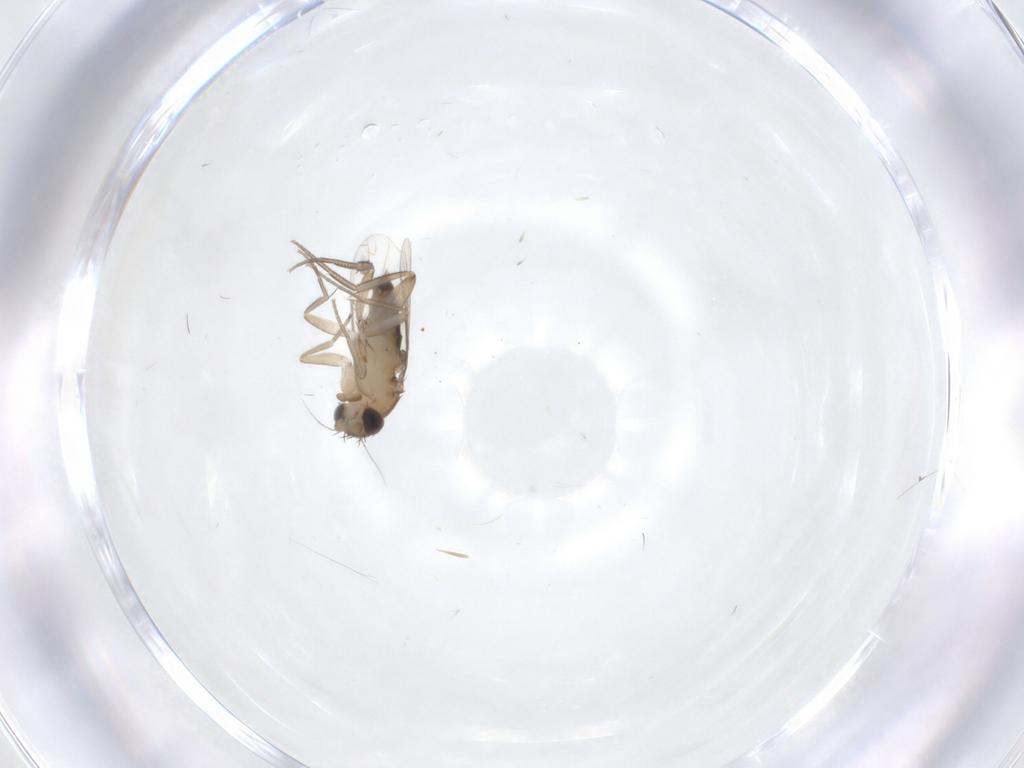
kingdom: Animalia
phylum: Arthropoda
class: Insecta
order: Diptera
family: Phoridae
